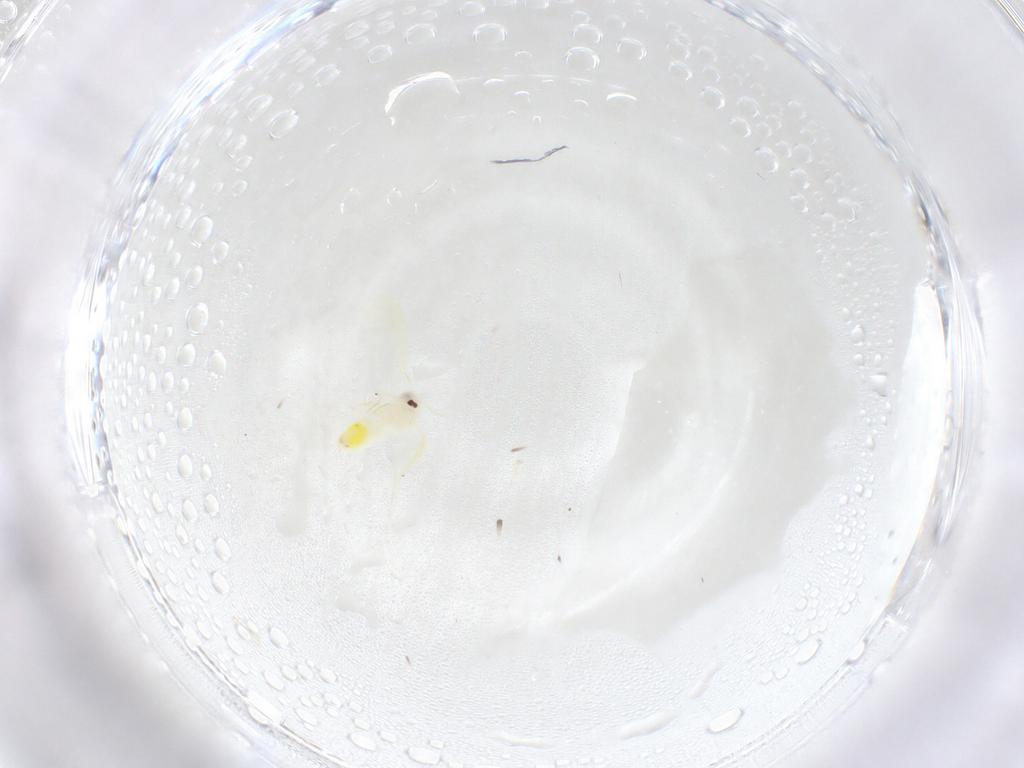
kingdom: Animalia
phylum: Arthropoda
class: Insecta
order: Hemiptera
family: Aleyrodidae
